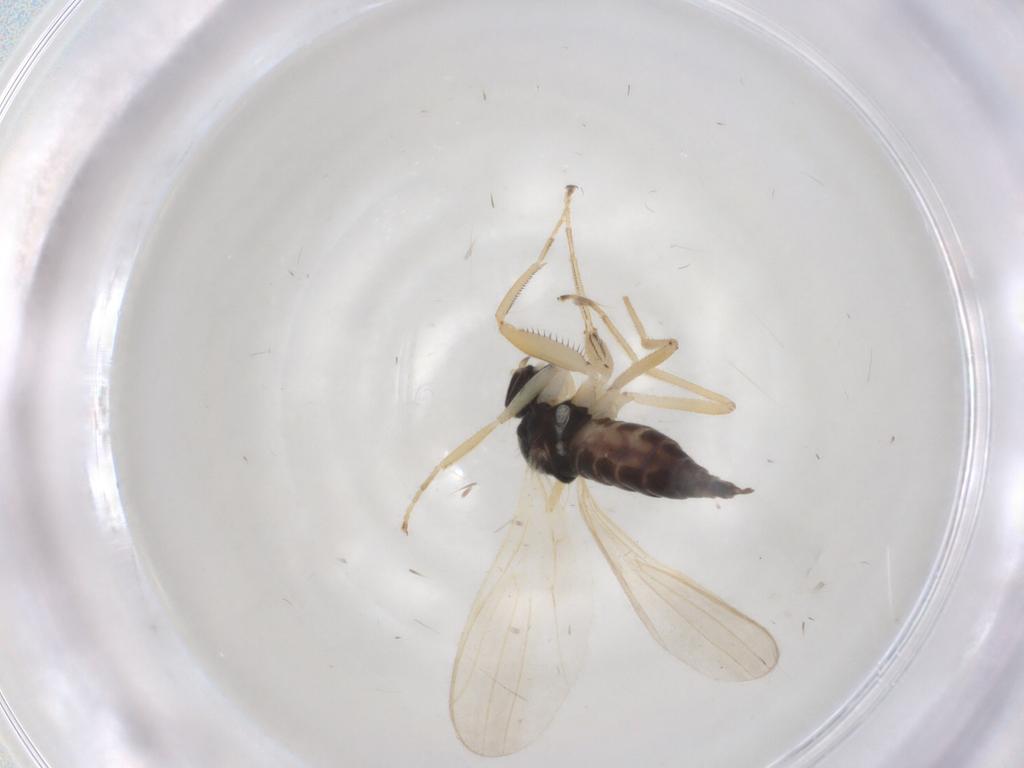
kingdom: Animalia
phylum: Arthropoda
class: Insecta
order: Diptera
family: Hybotidae
